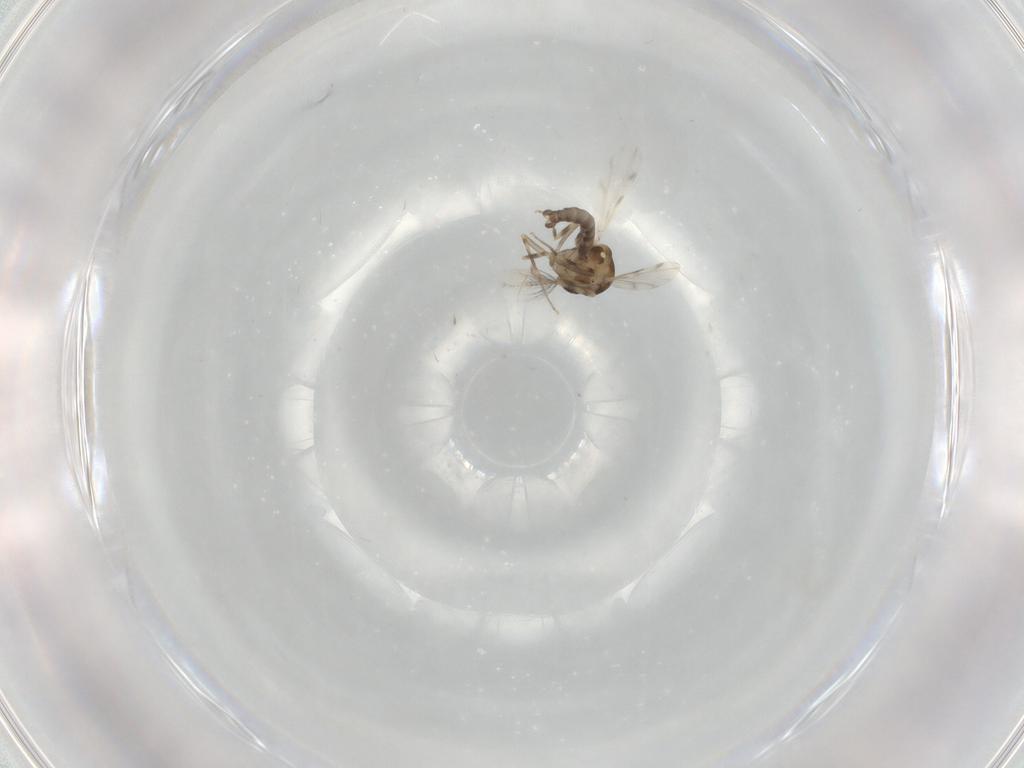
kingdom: Animalia
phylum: Arthropoda
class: Insecta
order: Diptera
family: Ceratopogonidae
